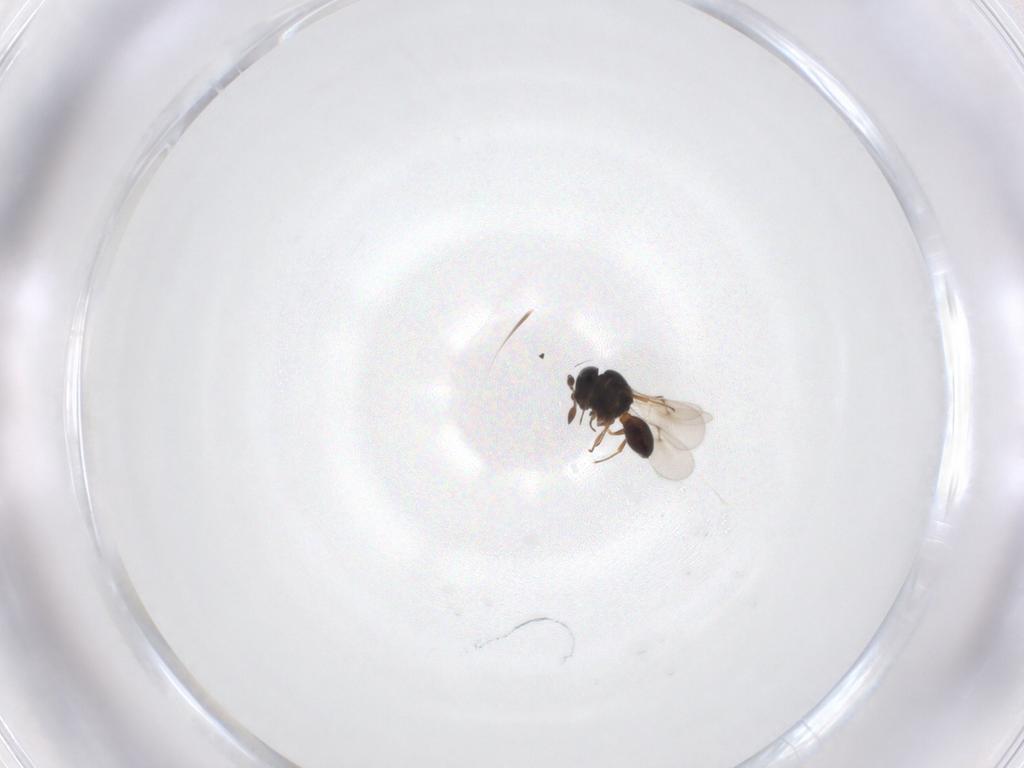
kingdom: Animalia
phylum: Arthropoda
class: Insecta
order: Hymenoptera
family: Scelionidae
